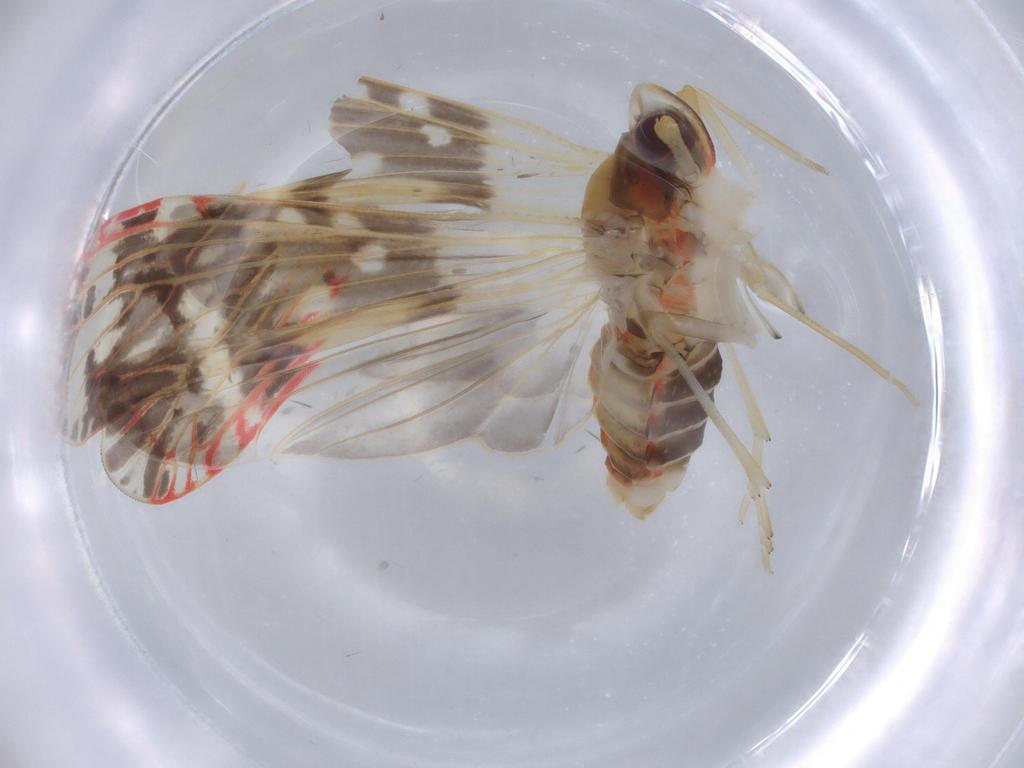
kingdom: Animalia
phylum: Arthropoda
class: Insecta
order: Hemiptera
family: Derbidae
